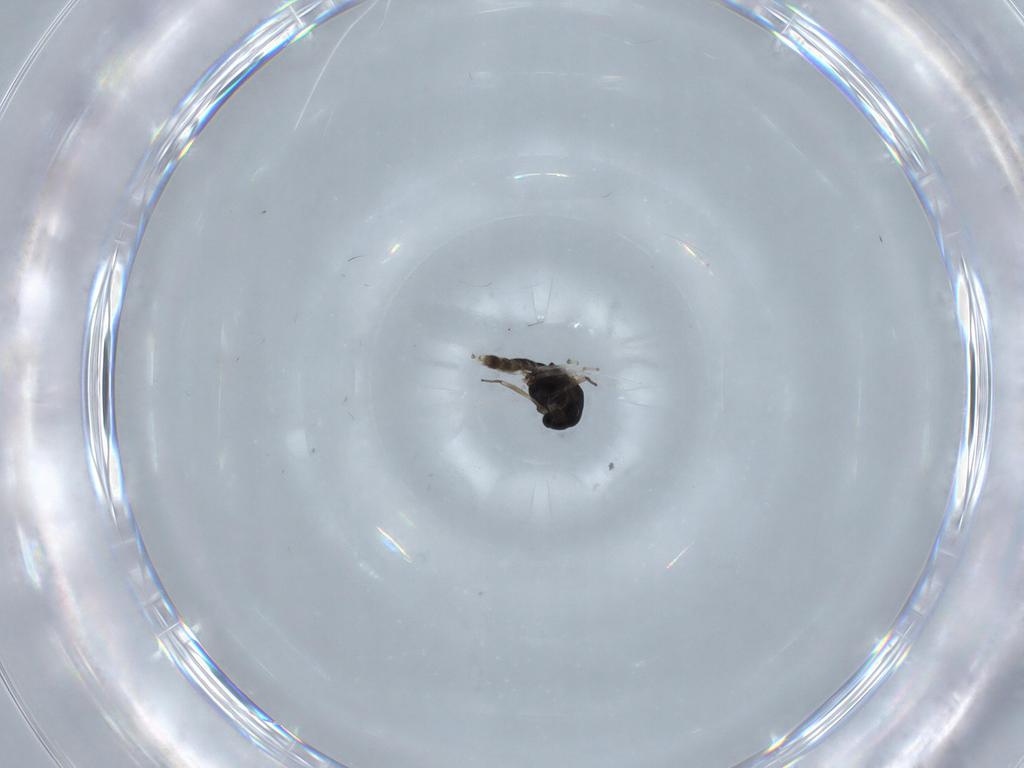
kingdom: Animalia
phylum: Arthropoda
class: Insecta
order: Diptera
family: Chironomidae
